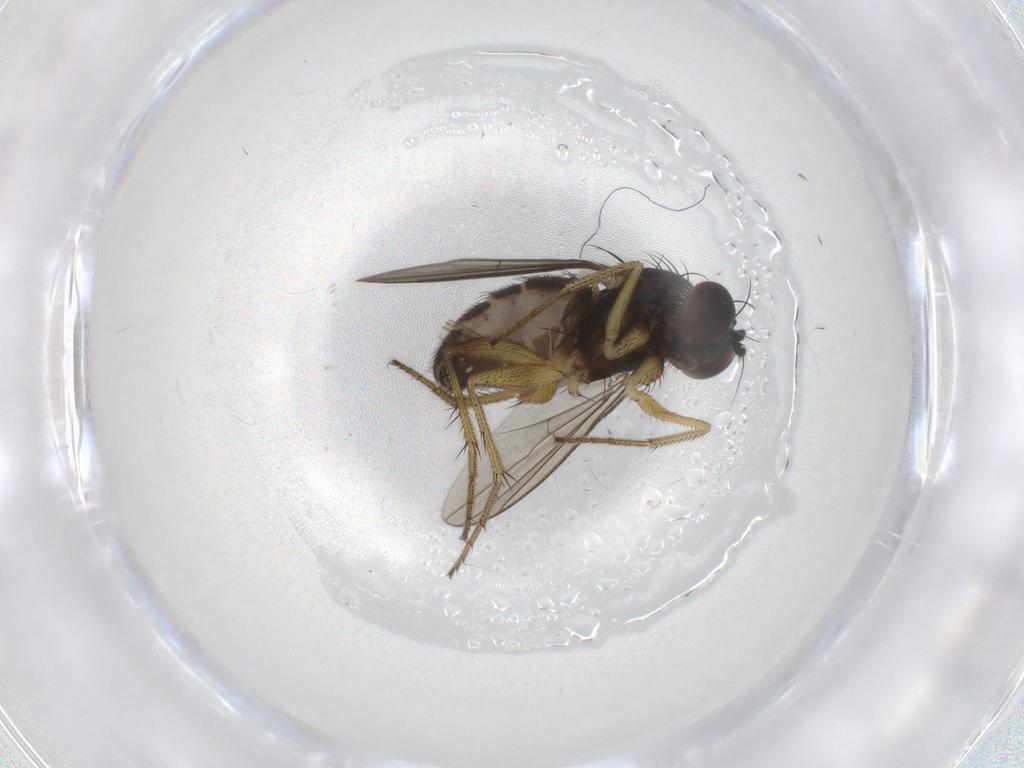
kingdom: Animalia
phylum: Arthropoda
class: Insecta
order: Diptera
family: Dolichopodidae
